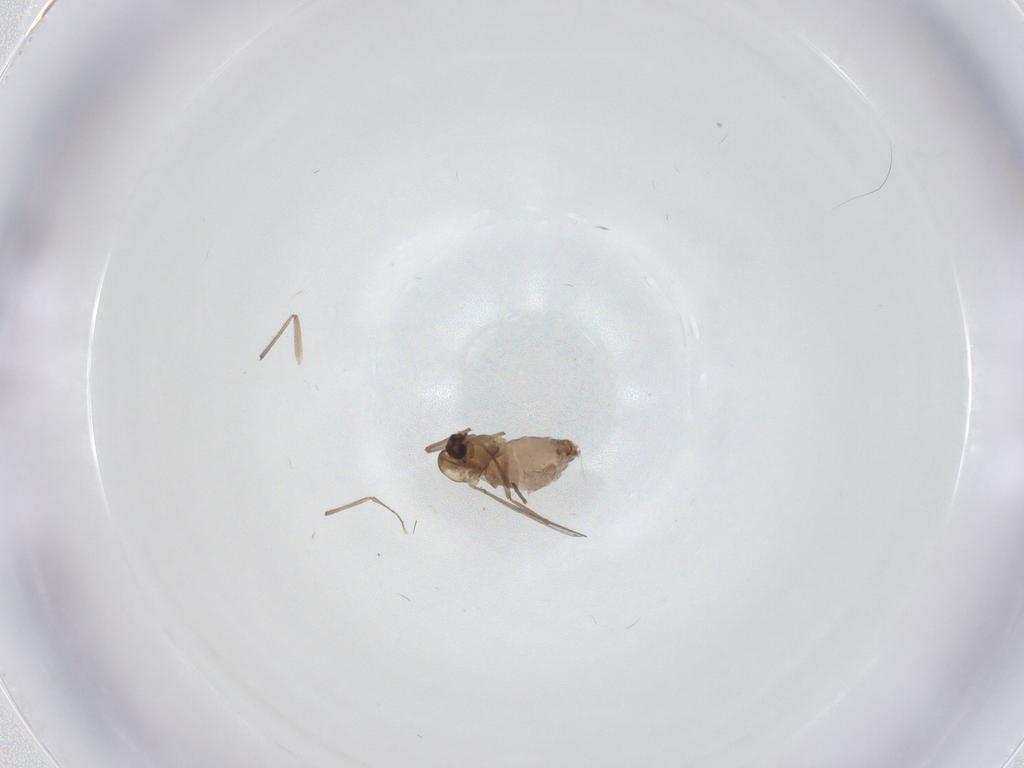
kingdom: Animalia
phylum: Arthropoda
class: Insecta
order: Diptera
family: Chironomidae
